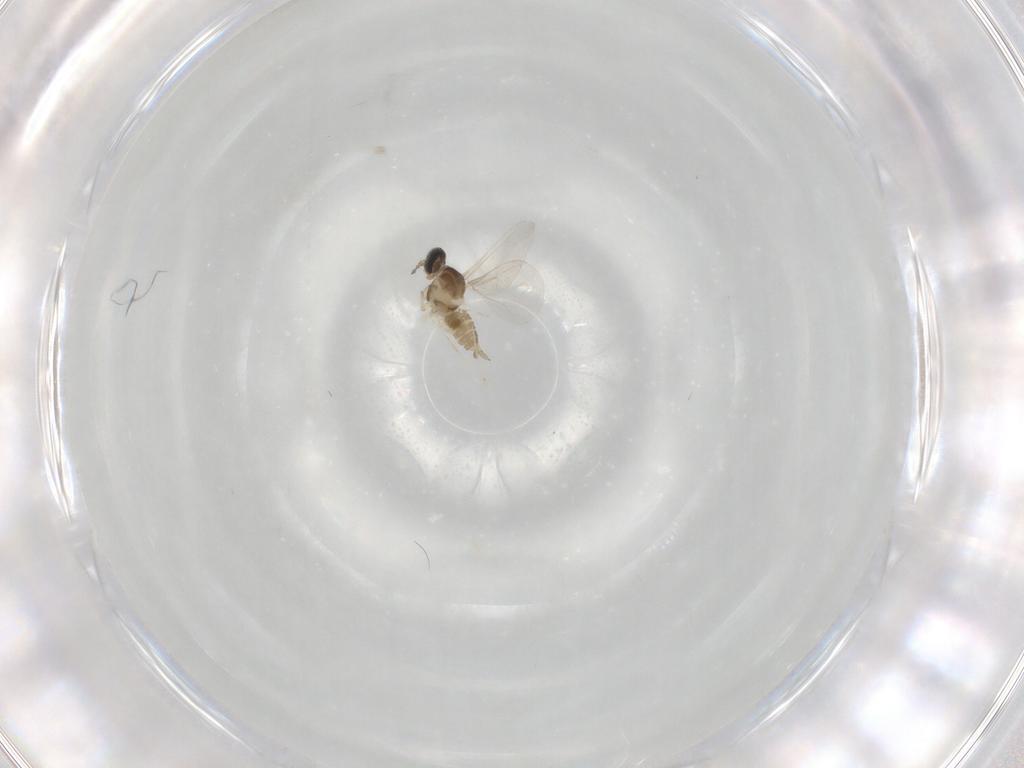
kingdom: Animalia
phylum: Arthropoda
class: Insecta
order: Diptera
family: Cecidomyiidae
